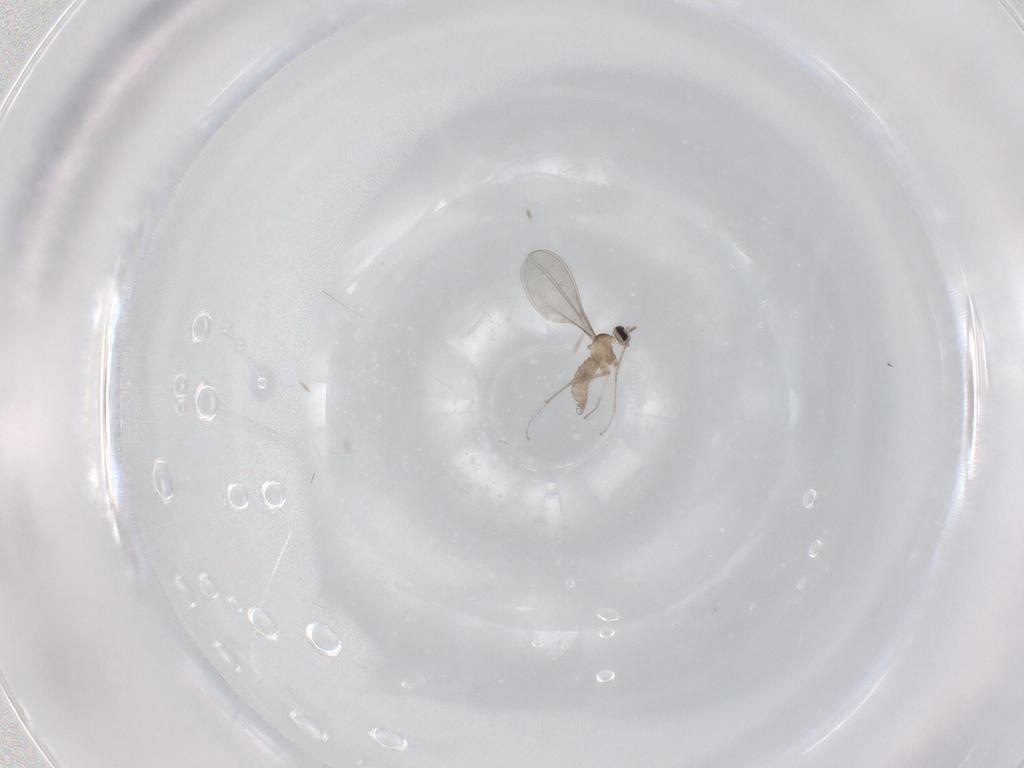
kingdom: Animalia
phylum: Arthropoda
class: Insecta
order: Diptera
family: Cecidomyiidae
